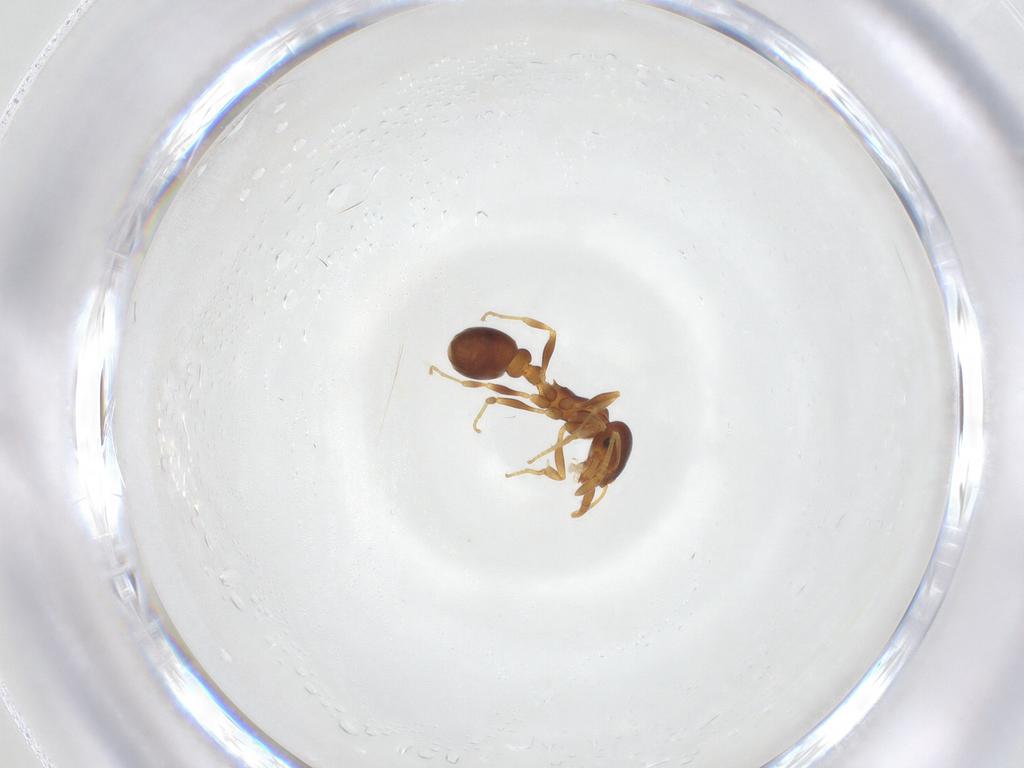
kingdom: Animalia
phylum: Arthropoda
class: Insecta
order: Hymenoptera
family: Formicidae
